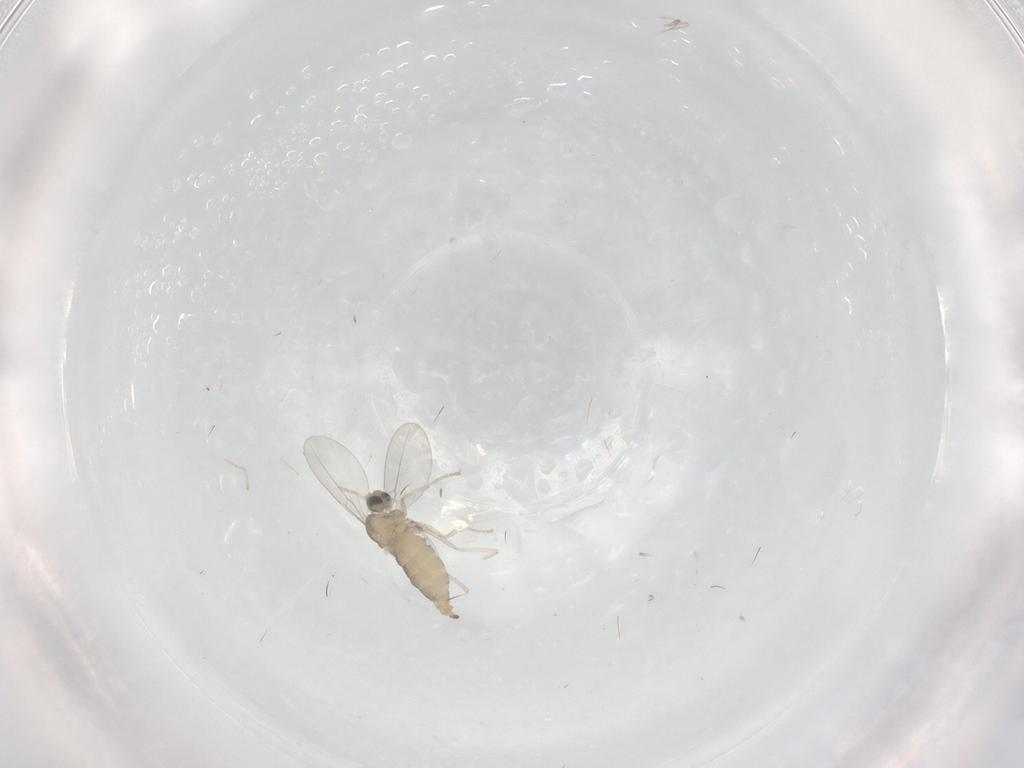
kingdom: Animalia
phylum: Arthropoda
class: Insecta
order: Diptera
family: Cecidomyiidae
